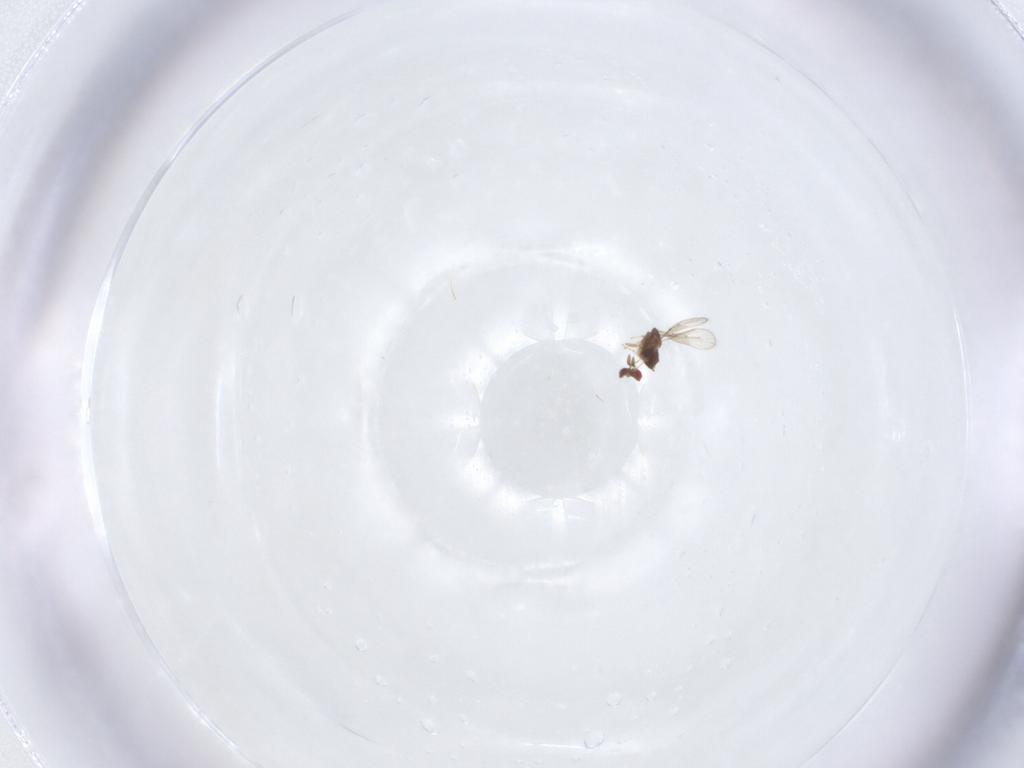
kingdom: Animalia
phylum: Arthropoda
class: Insecta
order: Hymenoptera
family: Trichogrammatidae
